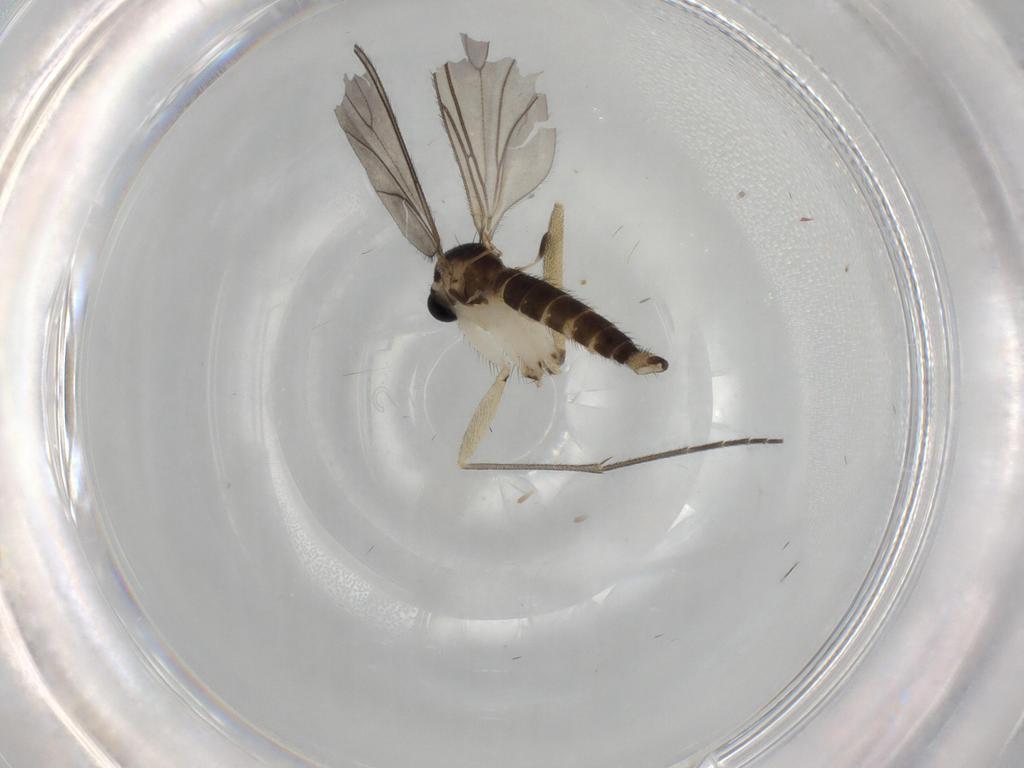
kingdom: Animalia
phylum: Arthropoda
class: Insecta
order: Diptera
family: Sciaridae
